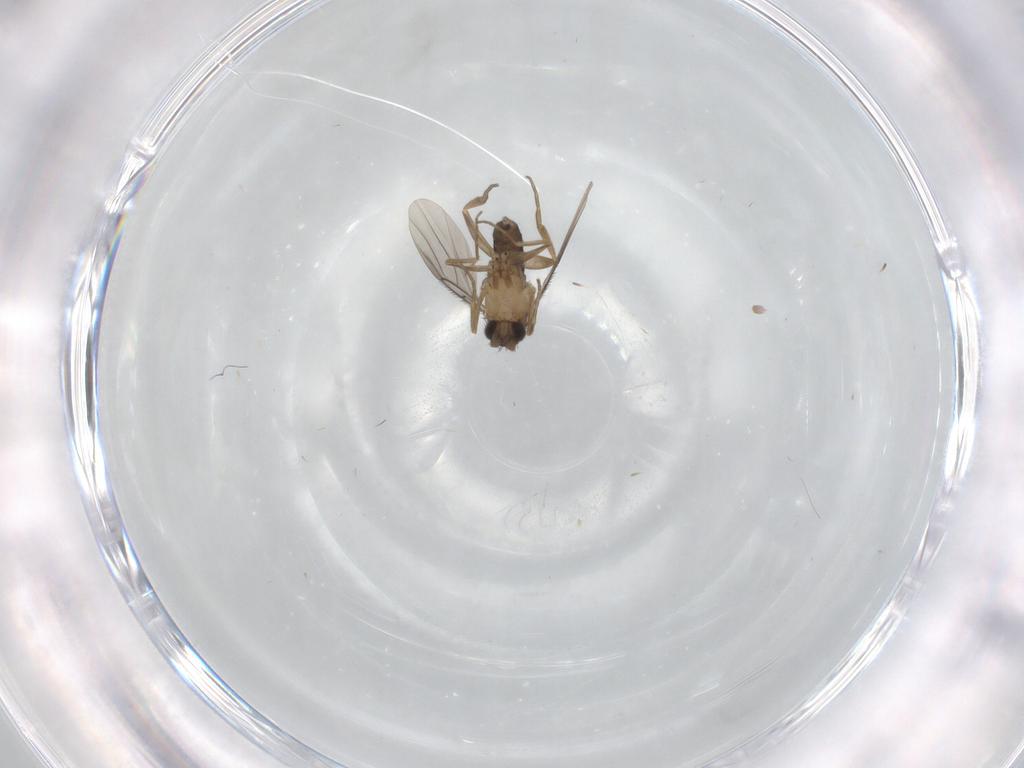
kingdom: Animalia
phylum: Arthropoda
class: Insecta
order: Diptera
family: Limoniidae
